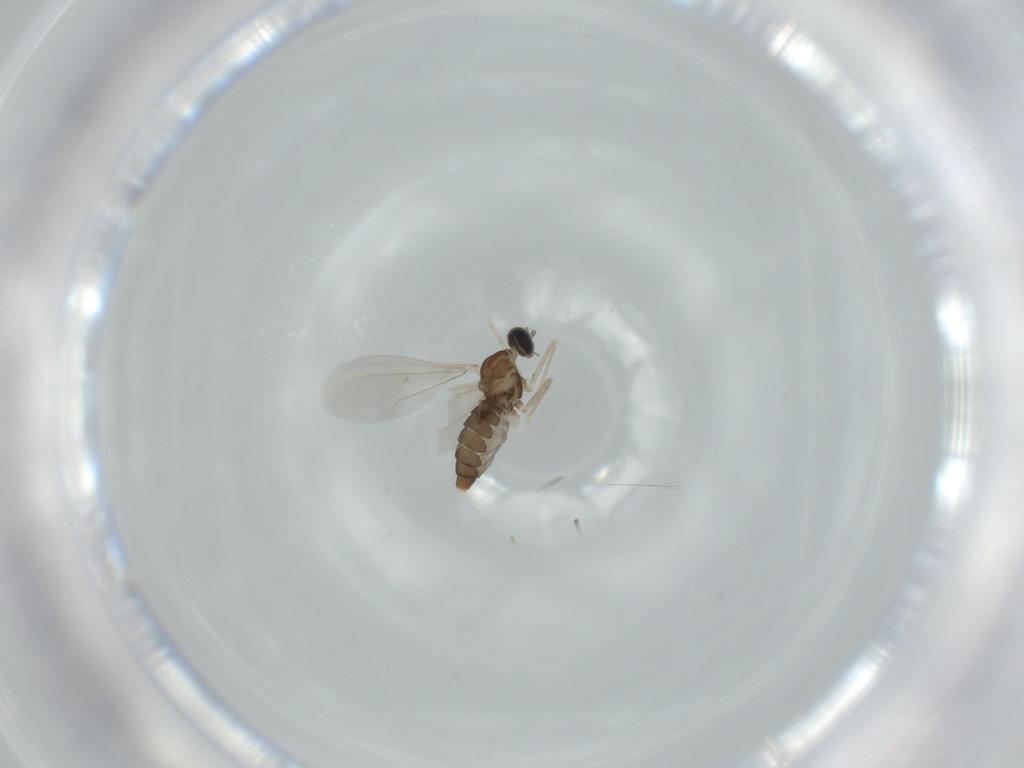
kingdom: Animalia
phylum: Arthropoda
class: Insecta
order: Diptera
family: Cecidomyiidae
